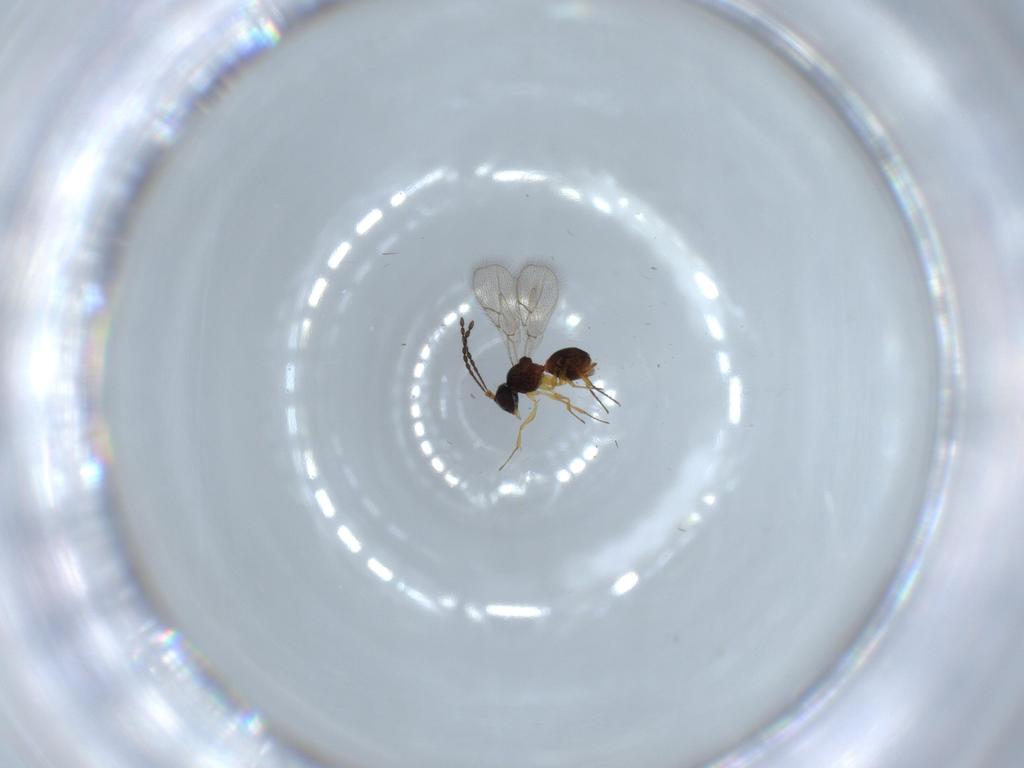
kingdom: Animalia
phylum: Arthropoda
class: Insecta
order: Hymenoptera
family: Figitidae
